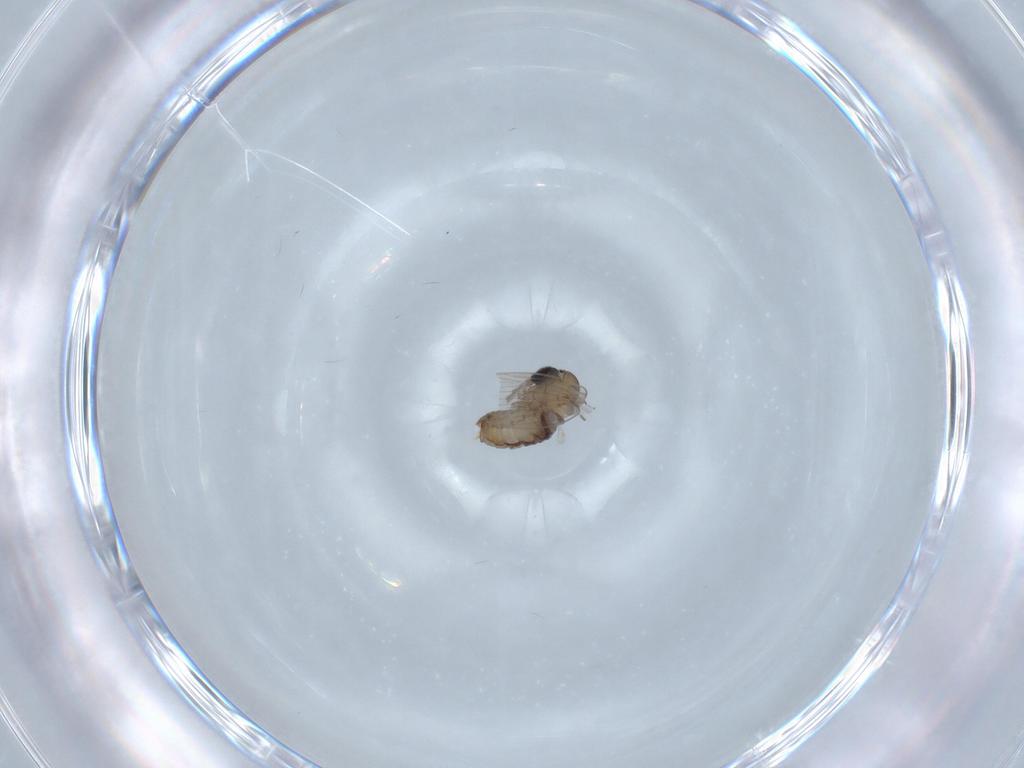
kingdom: Animalia
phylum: Arthropoda
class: Insecta
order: Diptera
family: Psychodidae
